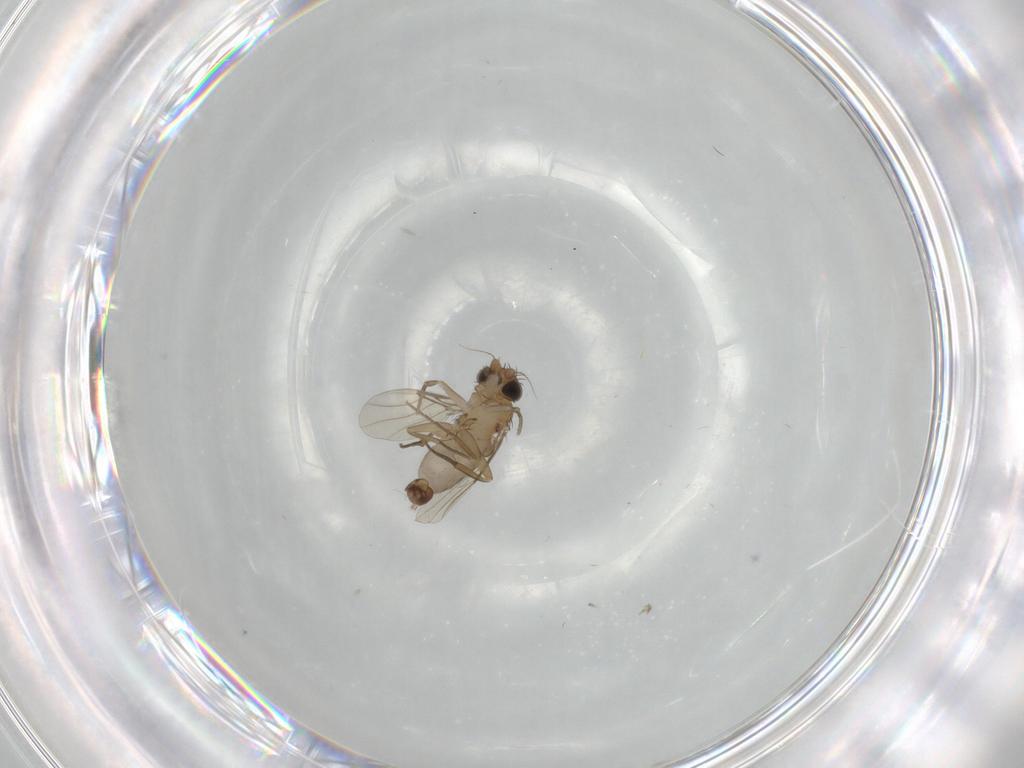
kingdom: Animalia
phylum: Arthropoda
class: Insecta
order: Diptera
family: Phoridae
